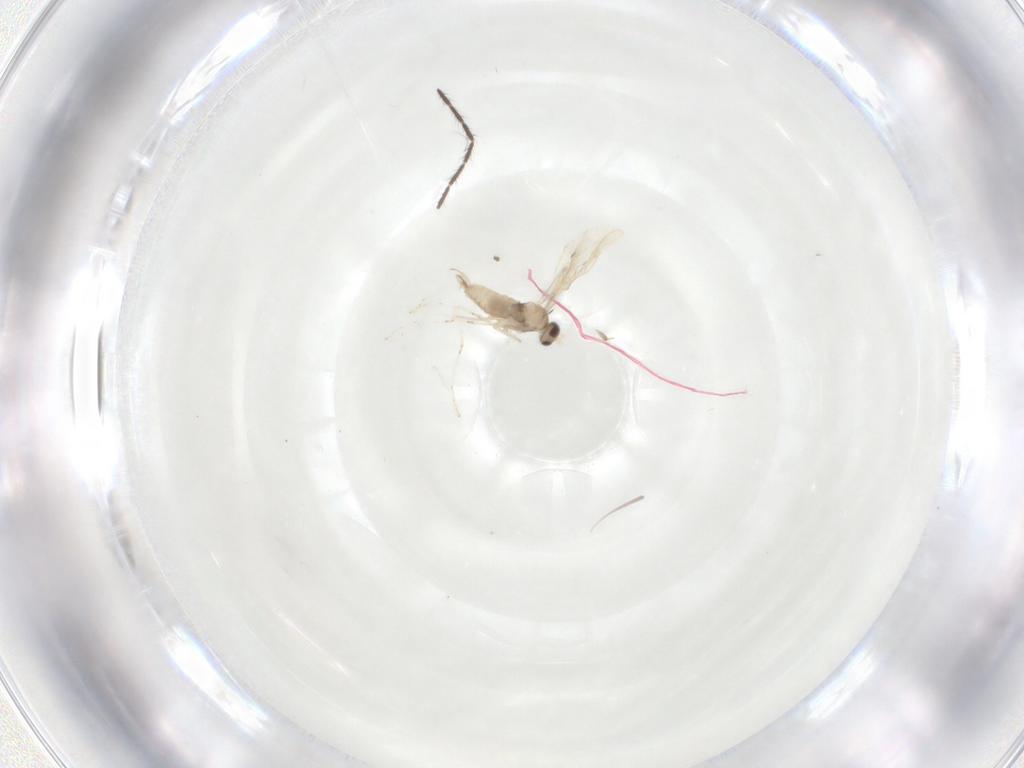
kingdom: Animalia
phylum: Arthropoda
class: Insecta
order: Diptera
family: Cecidomyiidae
